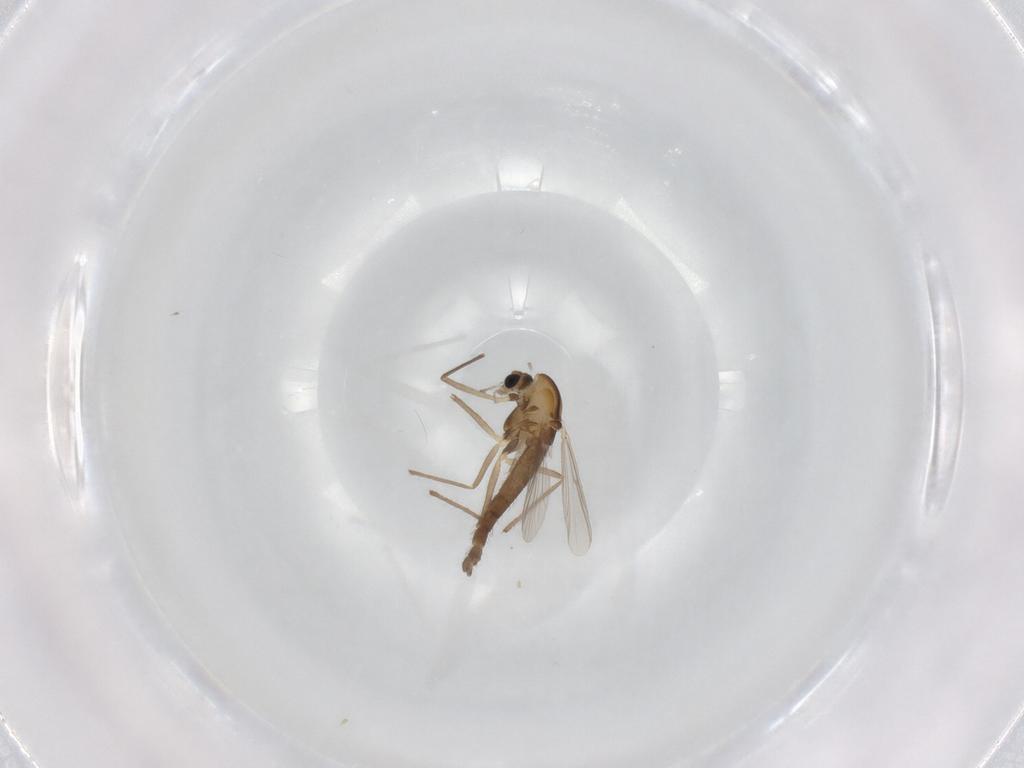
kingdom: Animalia
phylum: Arthropoda
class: Insecta
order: Diptera
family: Chironomidae
